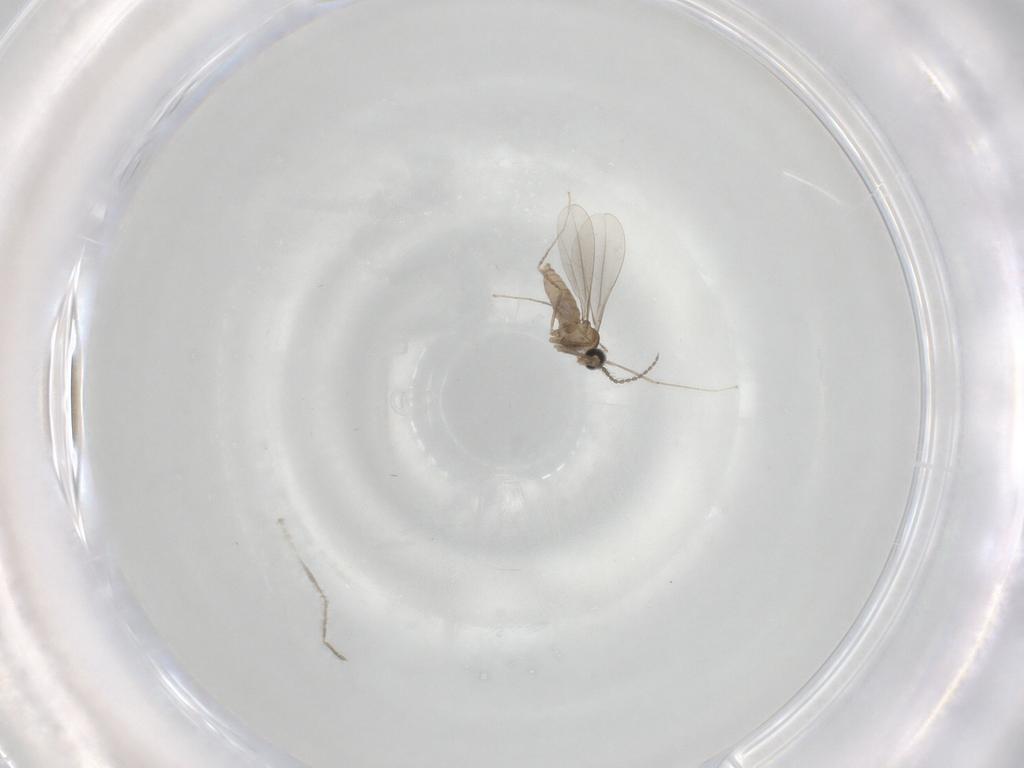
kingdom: Animalia
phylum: Arthropoda
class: Insecta
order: Diptera
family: Cecidomyiidae
